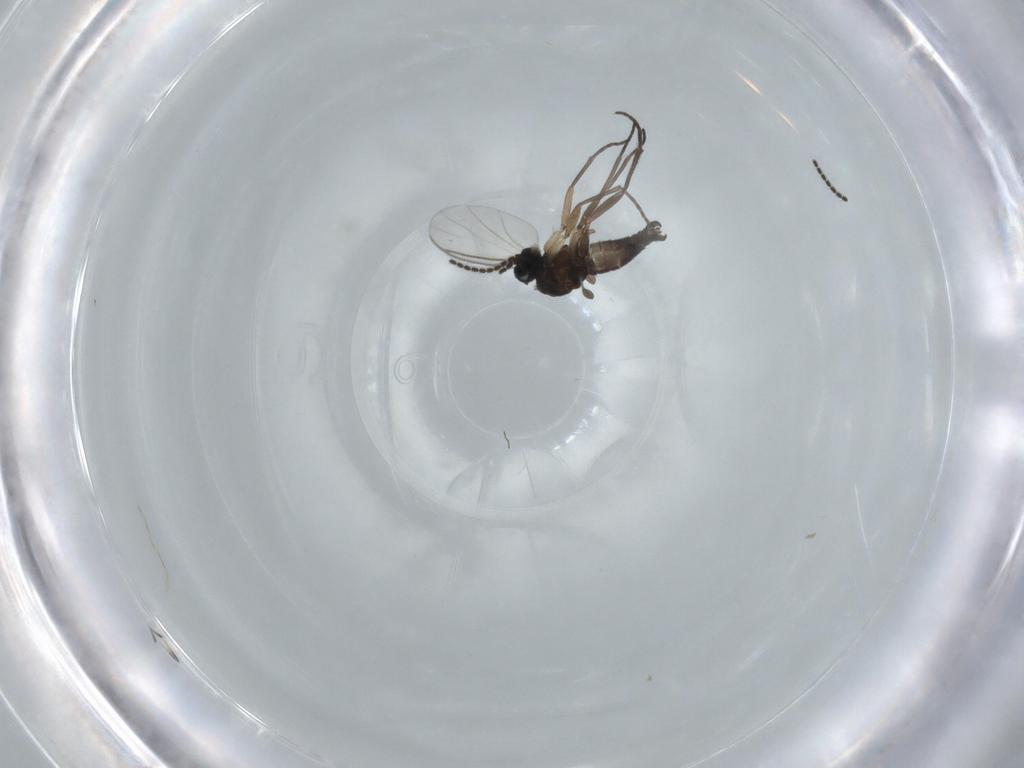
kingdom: Animalia
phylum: Arthropoda
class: Insecta
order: Diptera
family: Sciaridae
